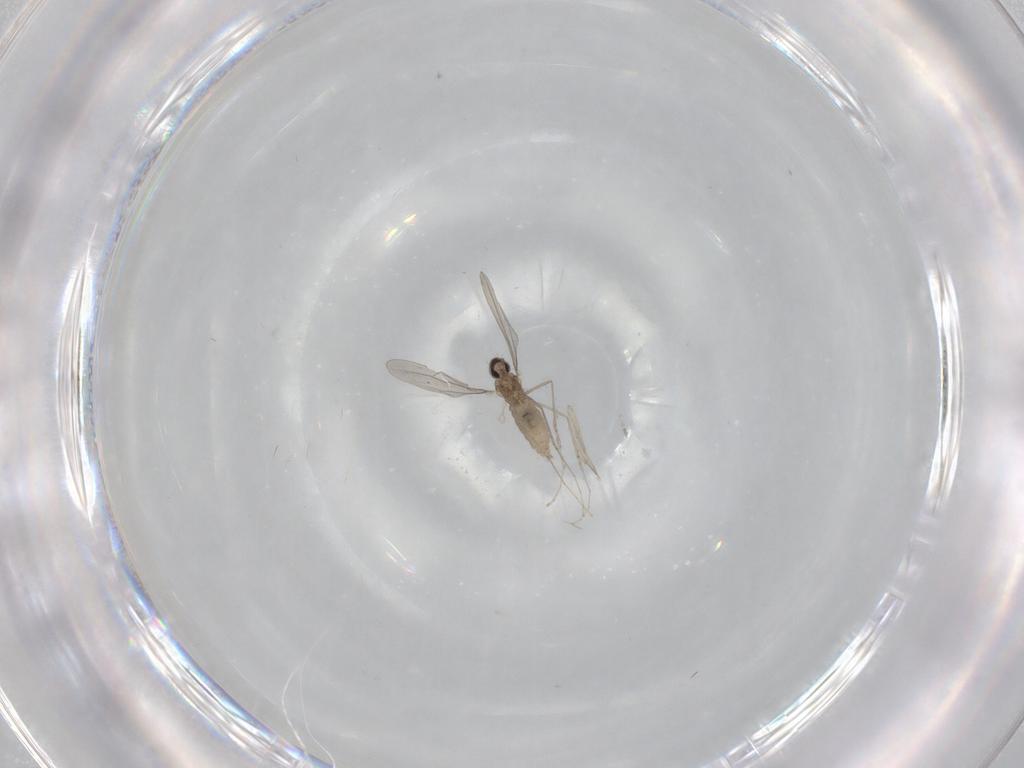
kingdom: Animalia
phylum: Arthropoda
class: Insecta
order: Diptera
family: Cecidomyiidae
